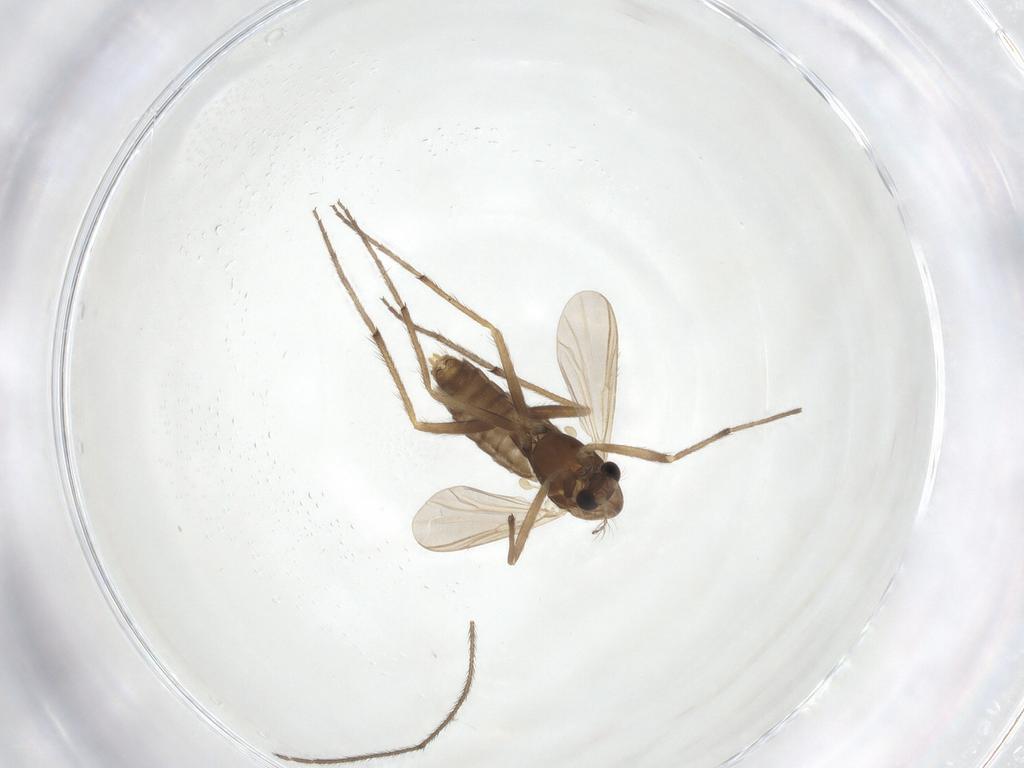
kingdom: Animalia
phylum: Arthropoda
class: Insecta
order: Diptera
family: Chironomidae
